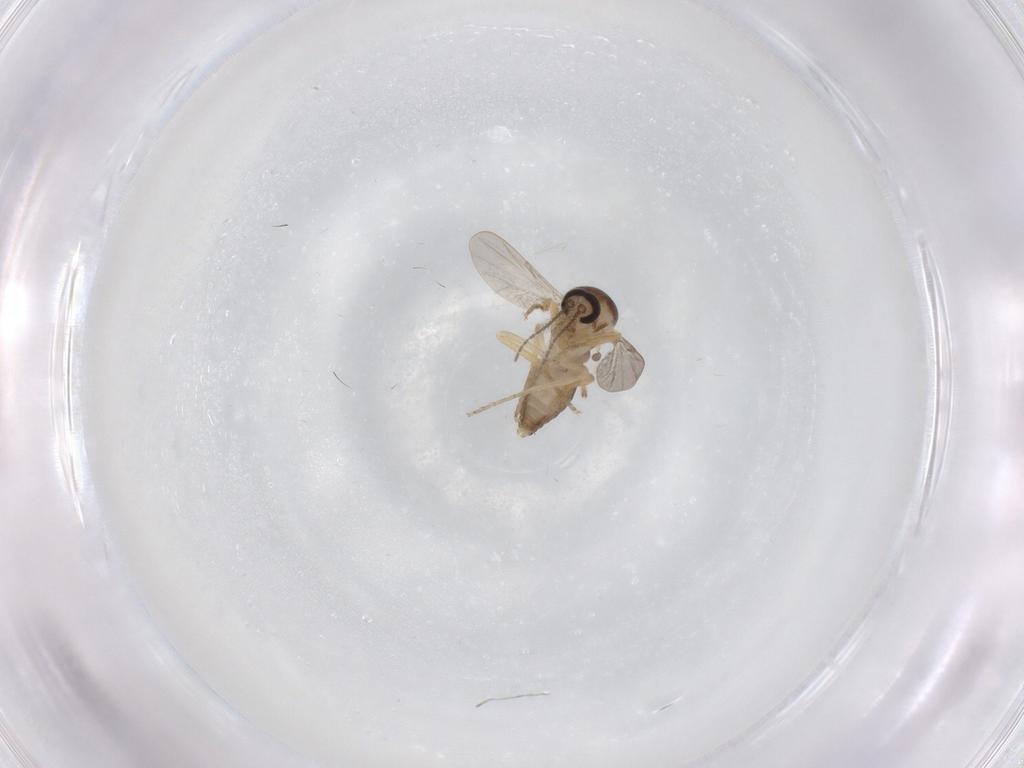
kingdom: Animalia
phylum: Arthropoda
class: Insecta
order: Diptera
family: Ceratopogonidae
